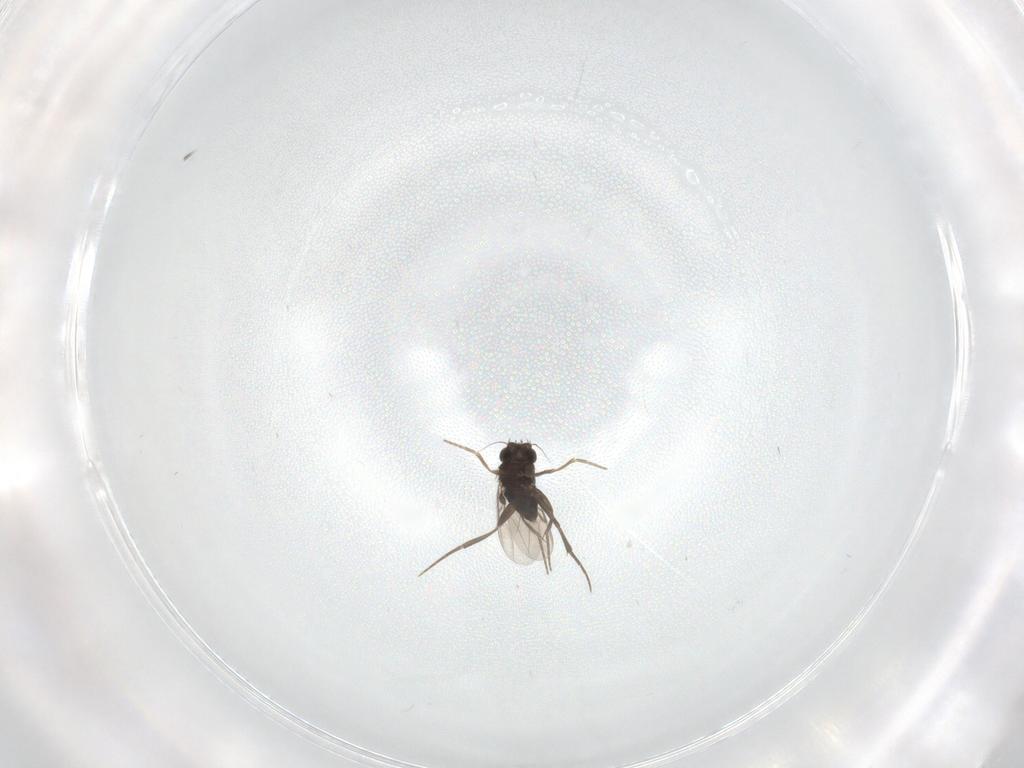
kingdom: Animalia
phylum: Arthropoda
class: Insecta
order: Diptera
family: Phoridae
